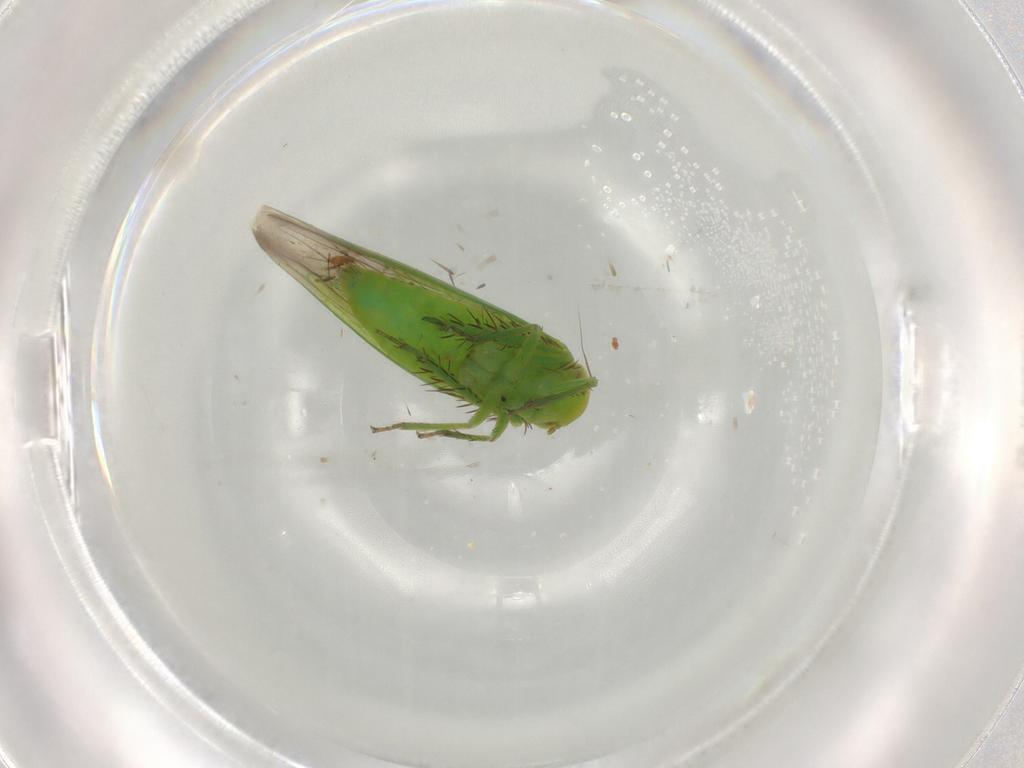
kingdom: Animalia
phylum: Arthropoda
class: Insecta
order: Hemiptera
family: Cicadellidae
